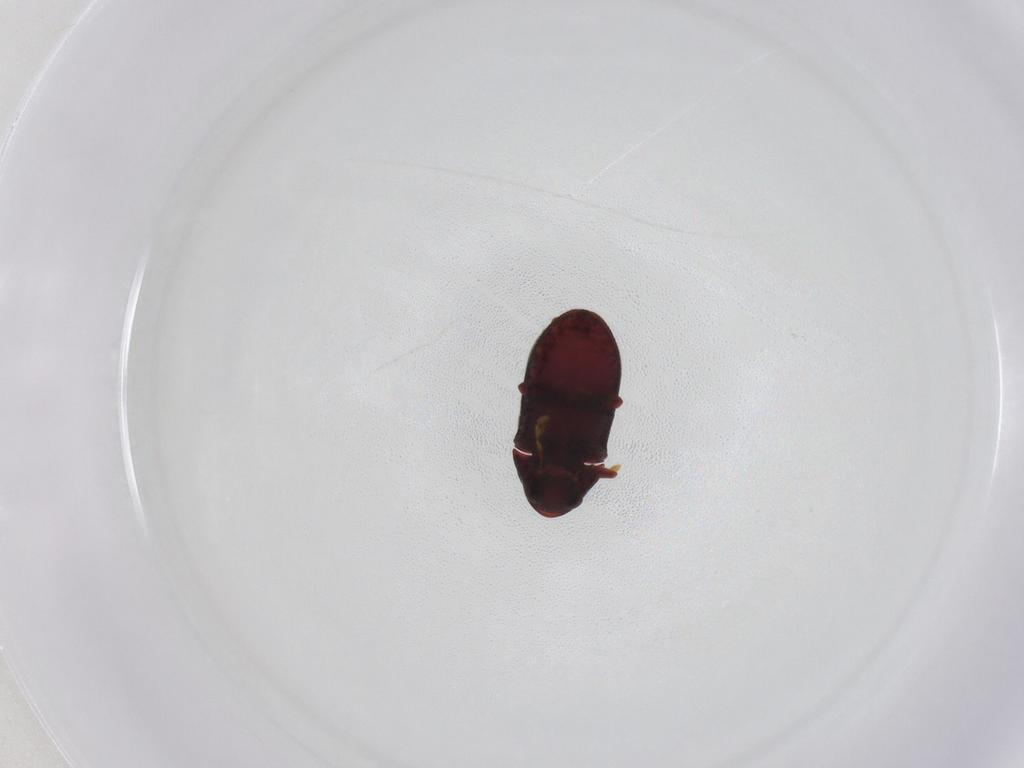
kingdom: Animalia
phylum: Arthropoda
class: Insecta
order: Coleoptera
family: Ptinidae
